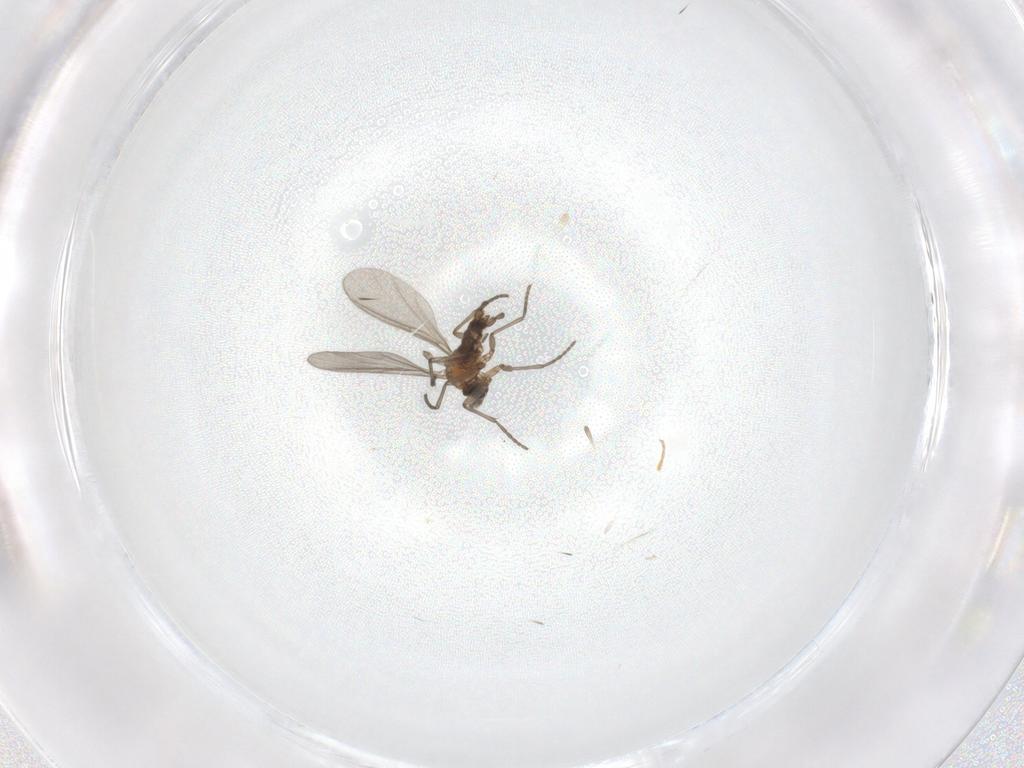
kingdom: Animalia
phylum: Arthropoda
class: Insecta
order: Diptera
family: Sciaridae
